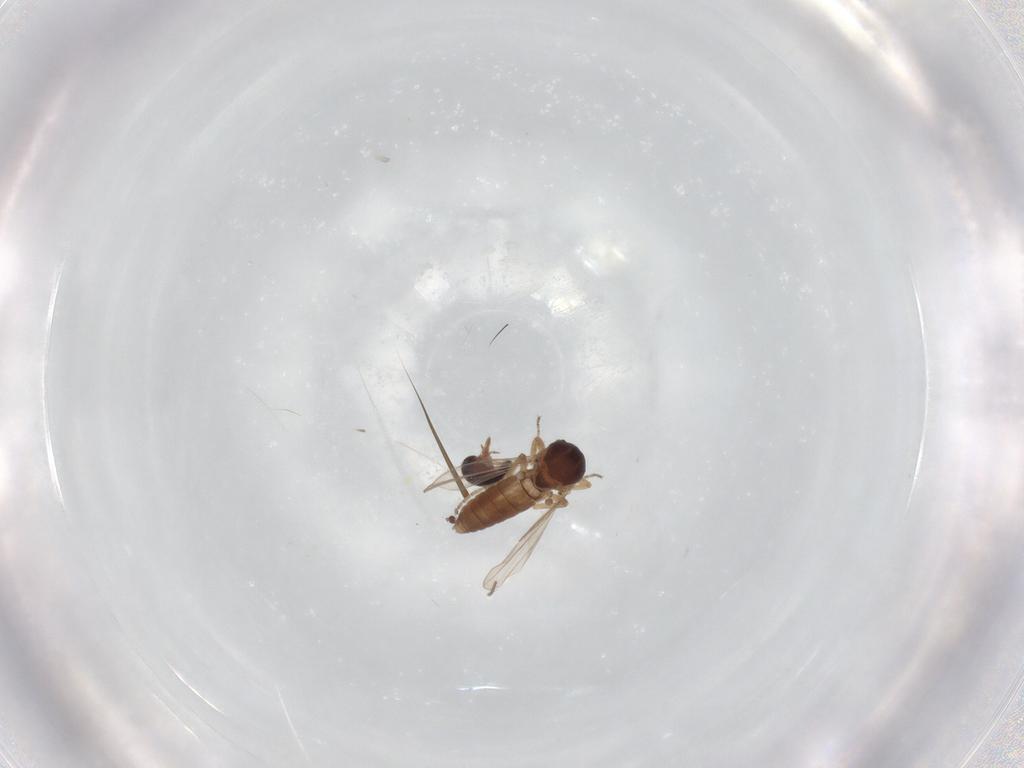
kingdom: Animalia
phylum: Arthropoda
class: Insecta
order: Diptera
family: Ceratopogonidae
